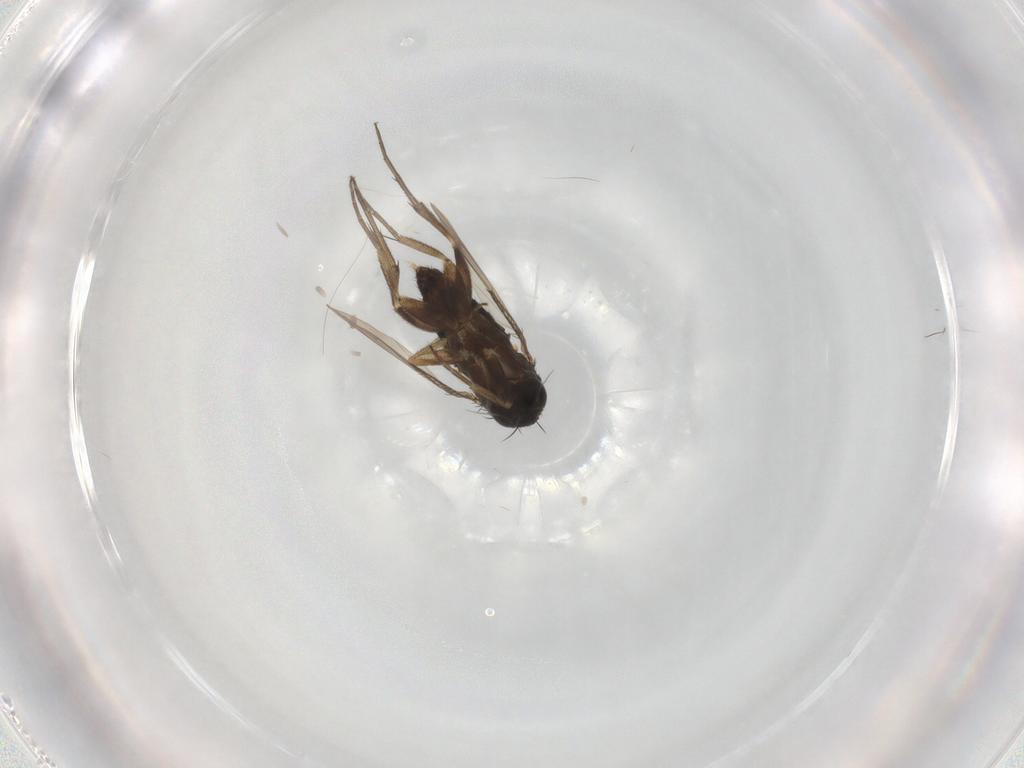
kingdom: Animalia
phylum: Arthropoda
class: Insecta
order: Diptera
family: Phoridae
